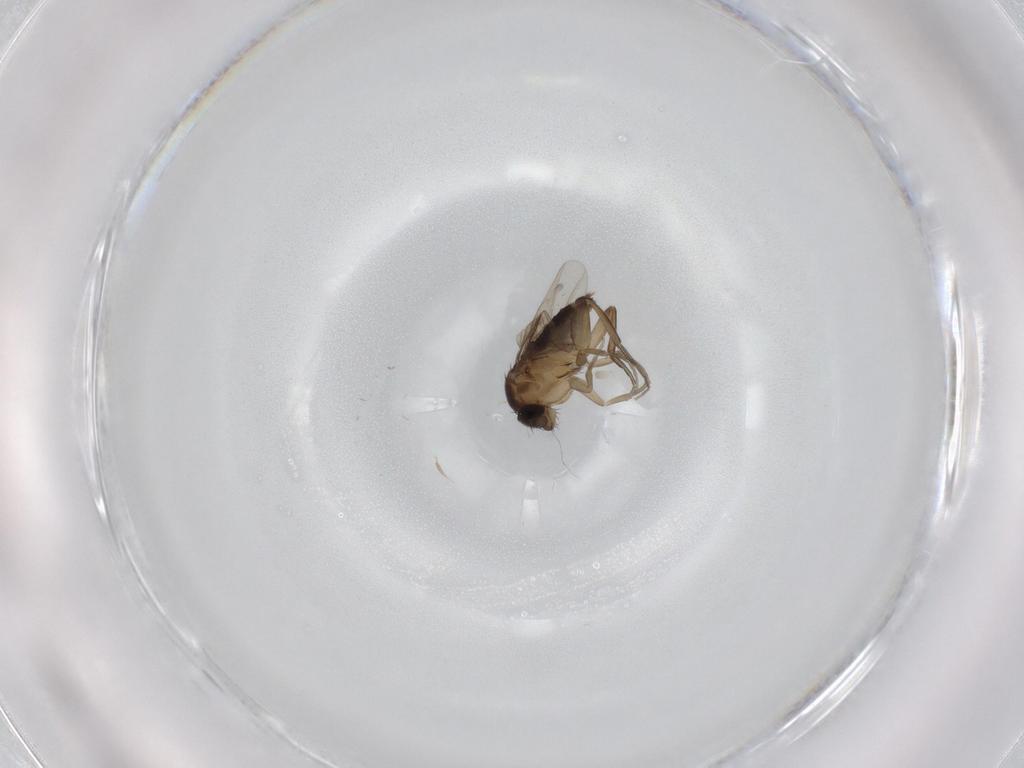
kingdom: Animalia
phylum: Arthropoda
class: Insecta
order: Diptera
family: Phoridae
